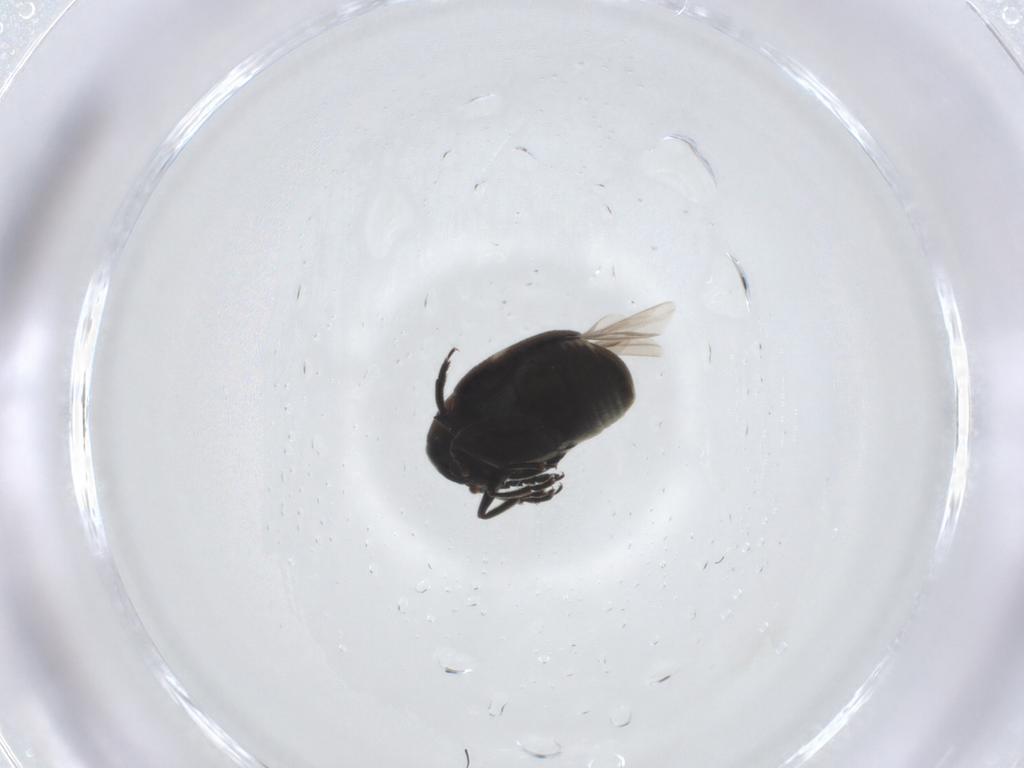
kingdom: Animalia
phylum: Arthropoda
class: Insecta
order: Coleoptera
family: Chrysomelidae
